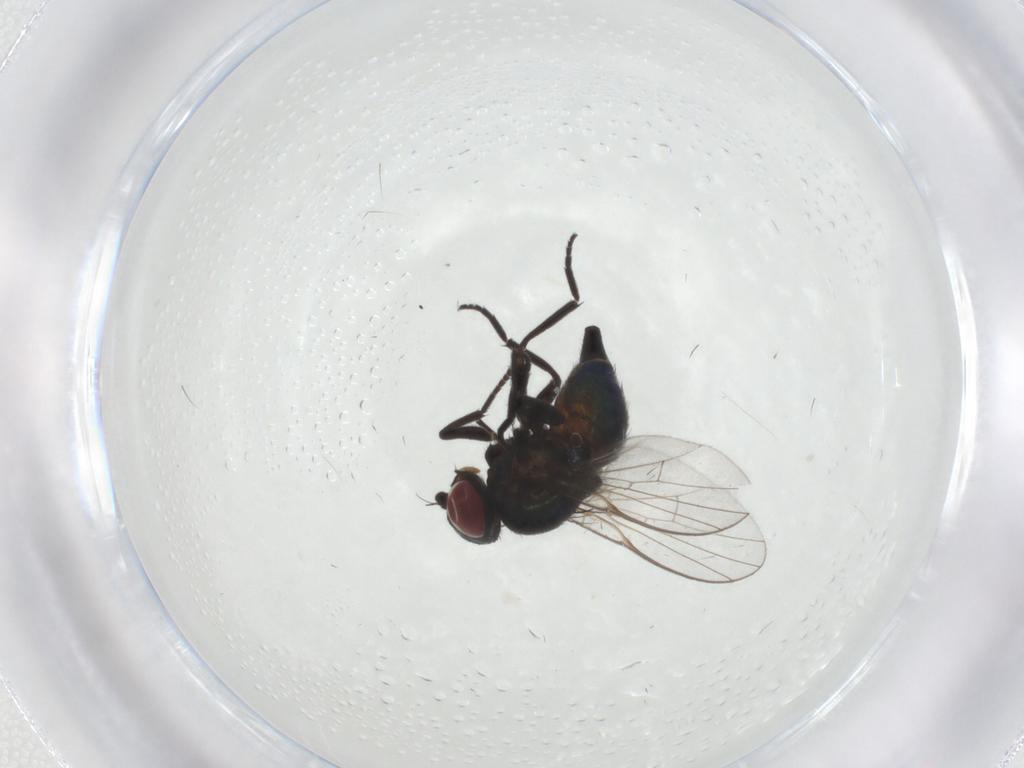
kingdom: Animalia
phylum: Arthropoda
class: Insecta
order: Diptera
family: Agromyzidae
